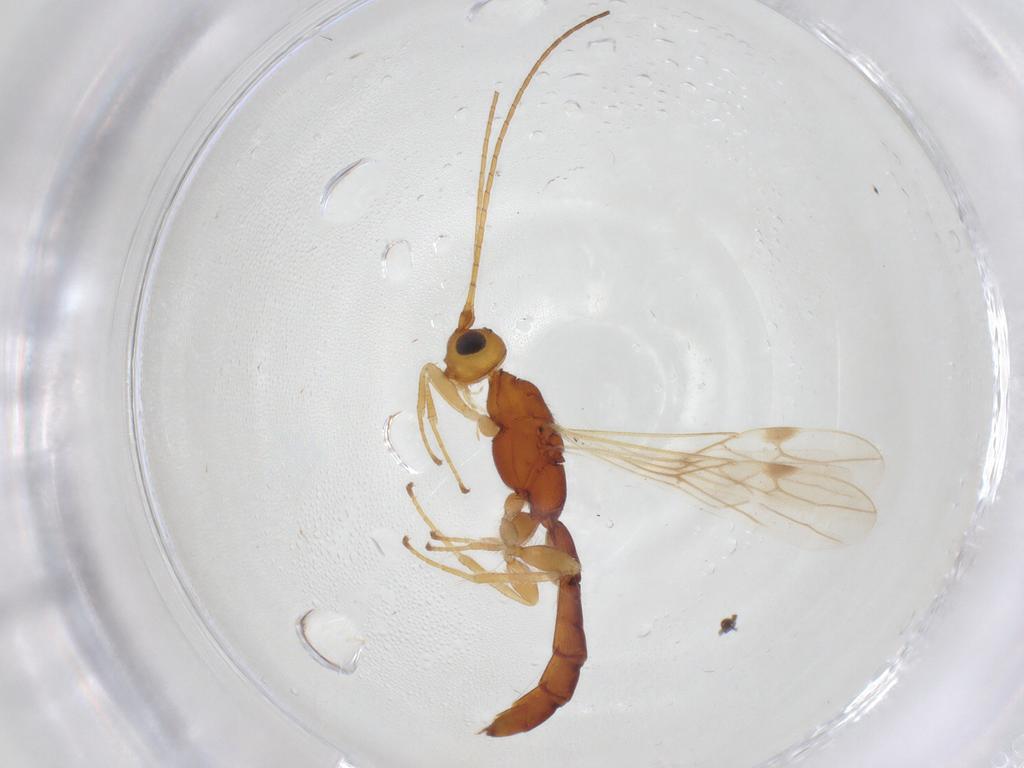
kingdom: Animalia
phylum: Arthropoda
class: Insecta
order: Hymenoptera
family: Braconidae
